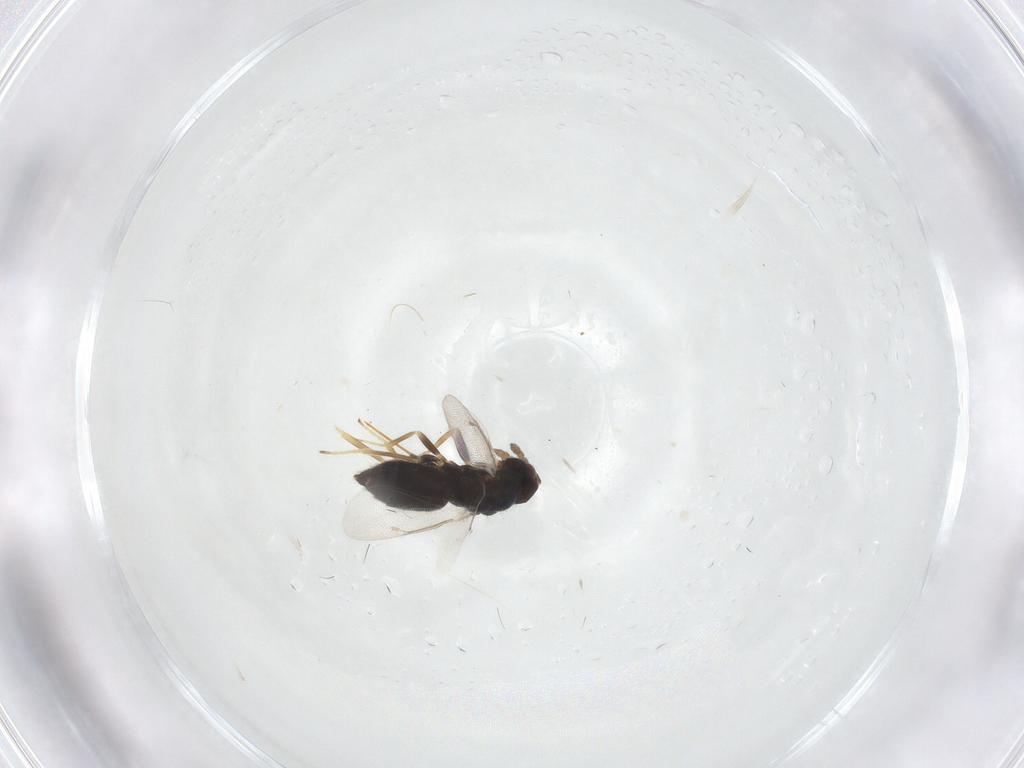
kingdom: Animalia
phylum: Arthropoda
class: Insecta
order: Hymenoptera
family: Eulophidae
